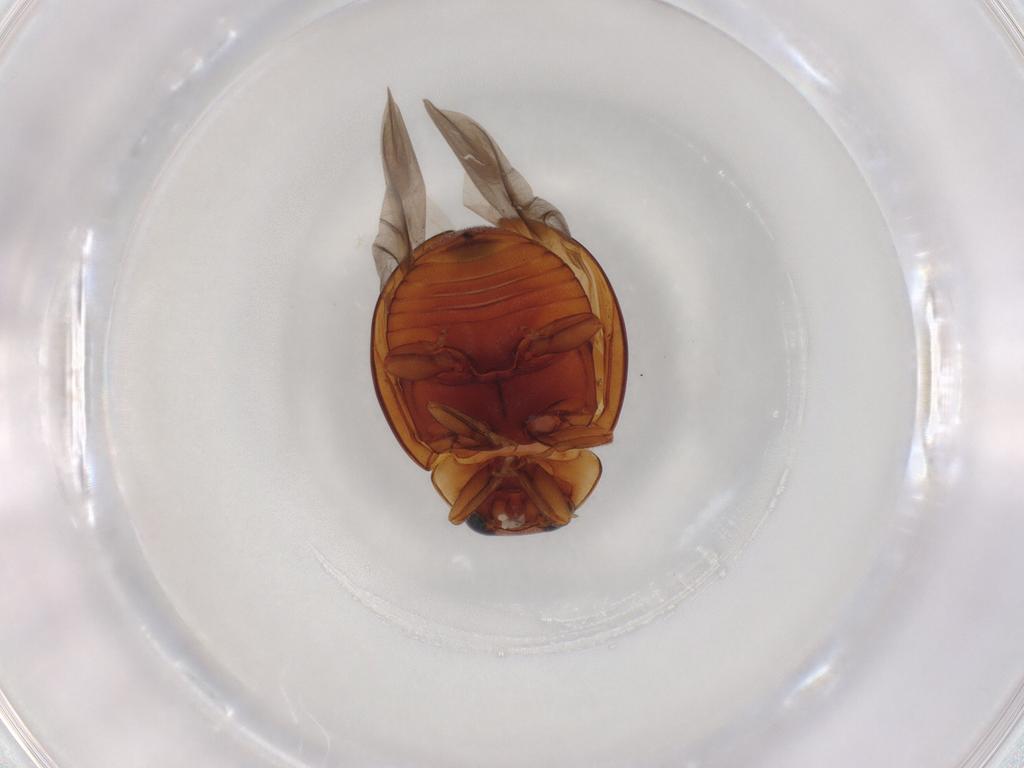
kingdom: Animalia
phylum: Arthropoda
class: Insecta
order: Coleoptera
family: Coccinellidae
